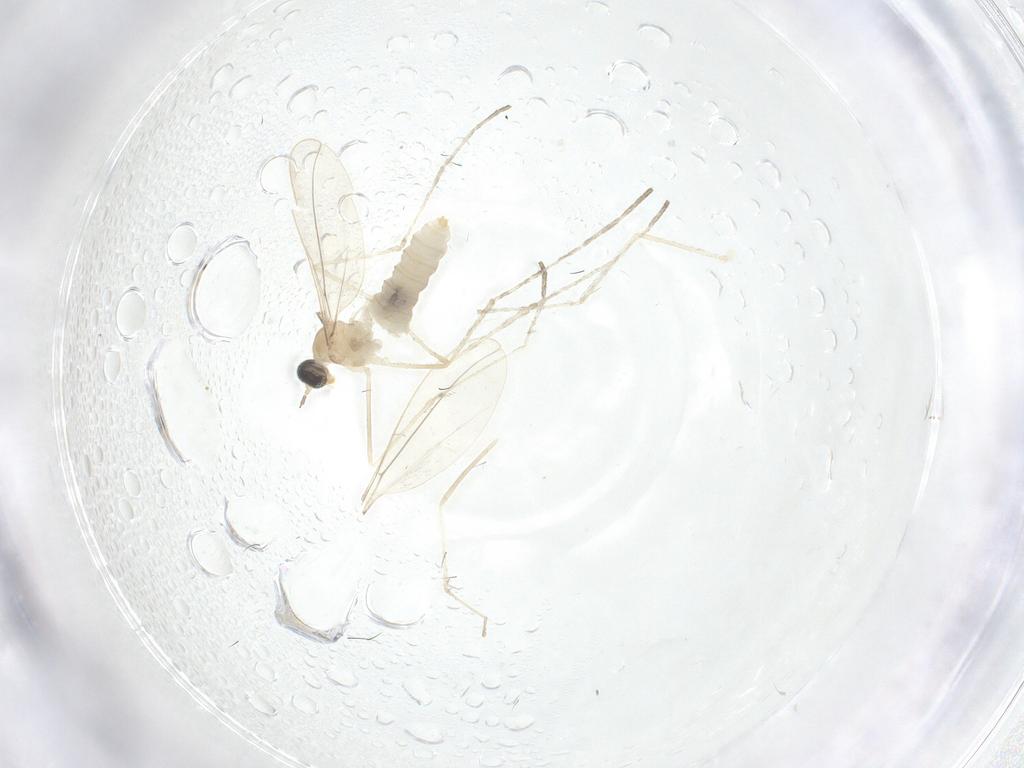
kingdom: Animalia
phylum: Arthropoda
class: Insecta
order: Diptera
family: Cecidomyiidae
